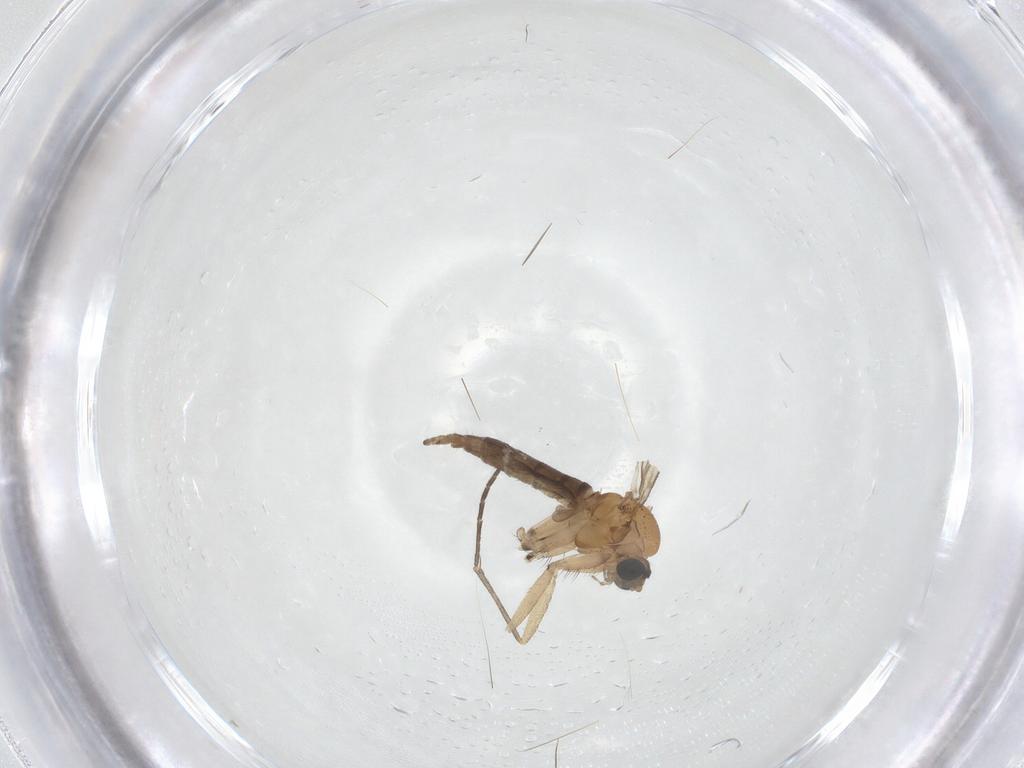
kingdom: Animalia
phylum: Arthropoda
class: Insecta
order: Diptera
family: Sciaridae
